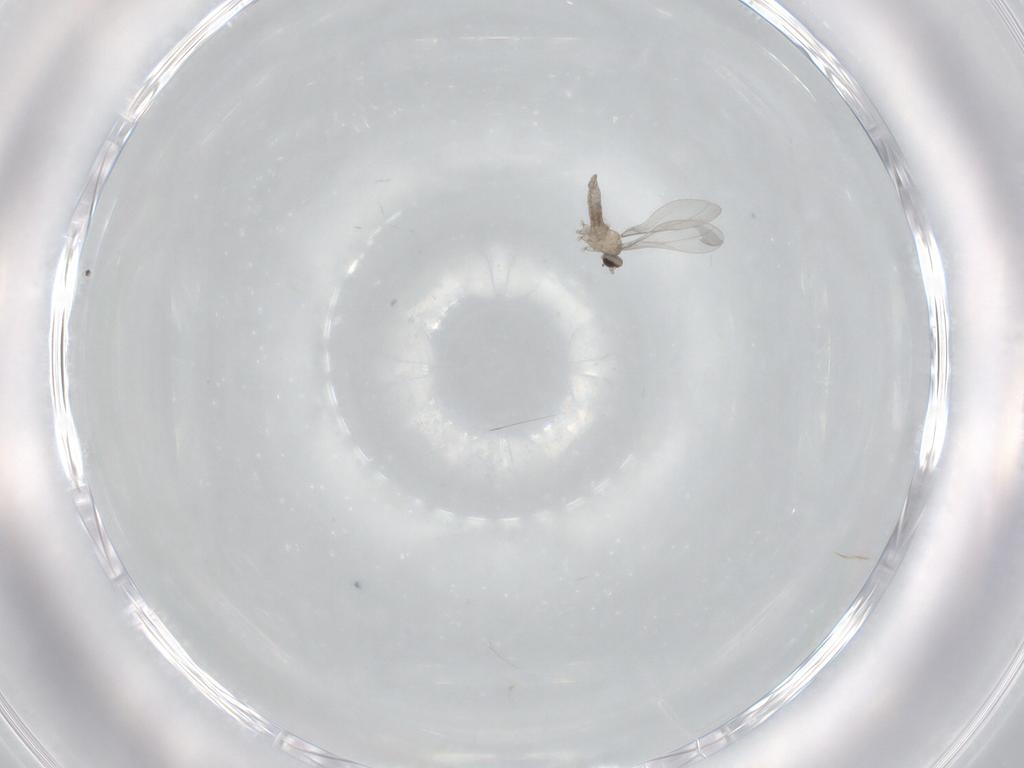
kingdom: Animalia
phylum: Arthropoda
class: Insecta
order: Diptera
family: Cecidomyiidae
